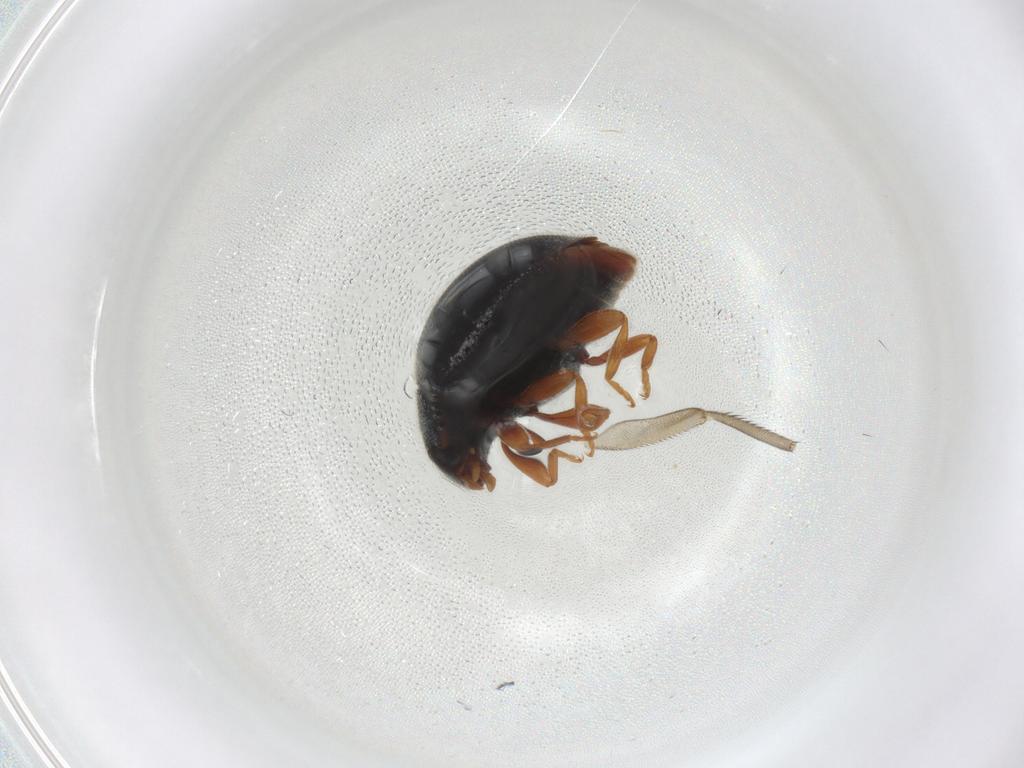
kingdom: Animalia
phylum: Arthropoda
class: Insecta
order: Coleoptera
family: Coccinellidae
